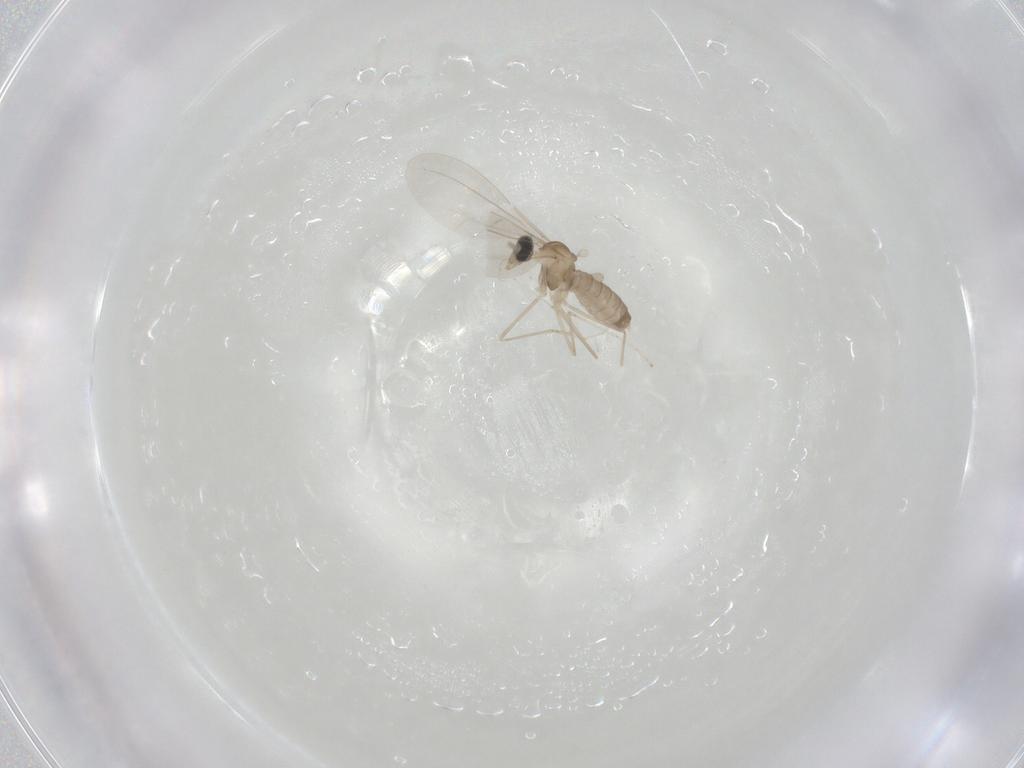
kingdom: Animalia
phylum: Arthropoda
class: Insecta
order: Diptera
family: Cecidomyiidae
